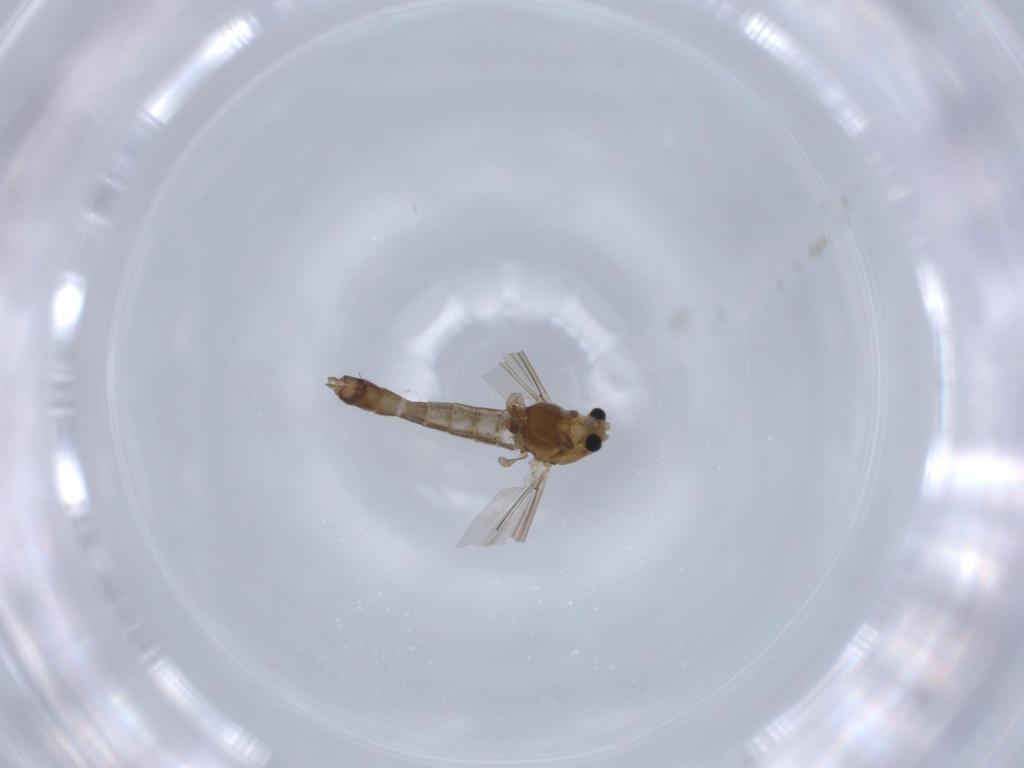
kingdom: Animalia
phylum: Arthropoda
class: Insecta
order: Diptera
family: Chironomidae
